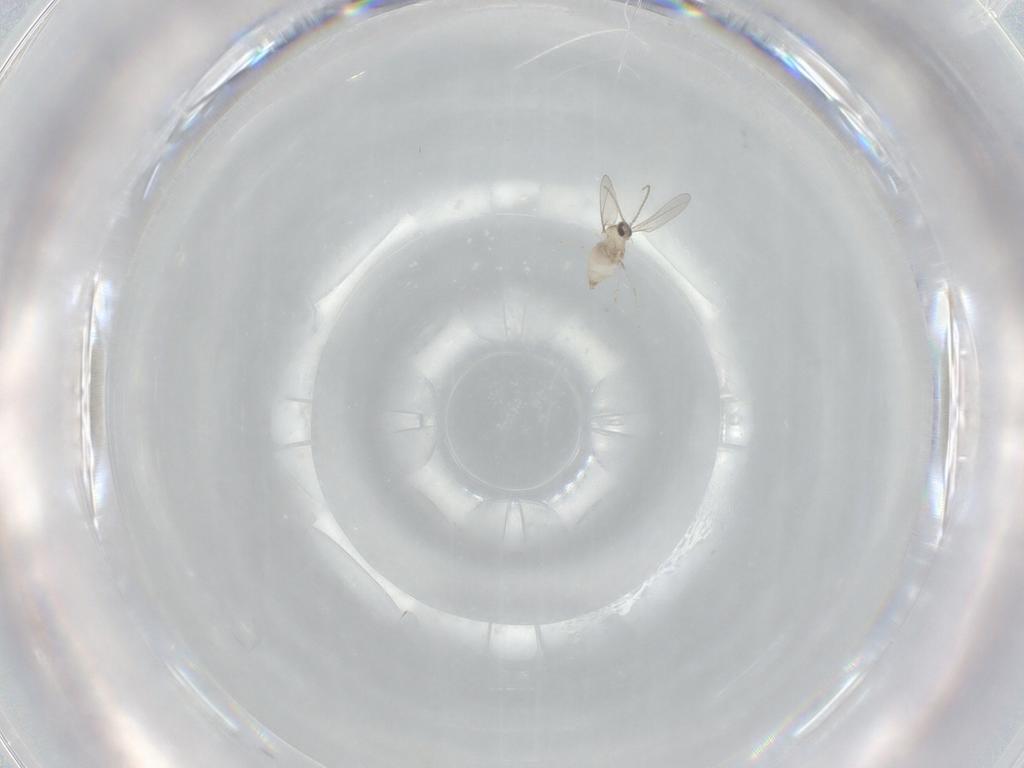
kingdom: Animalia
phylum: Arthropoda
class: Insecta
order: Diptera
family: Cecidomyiidae
